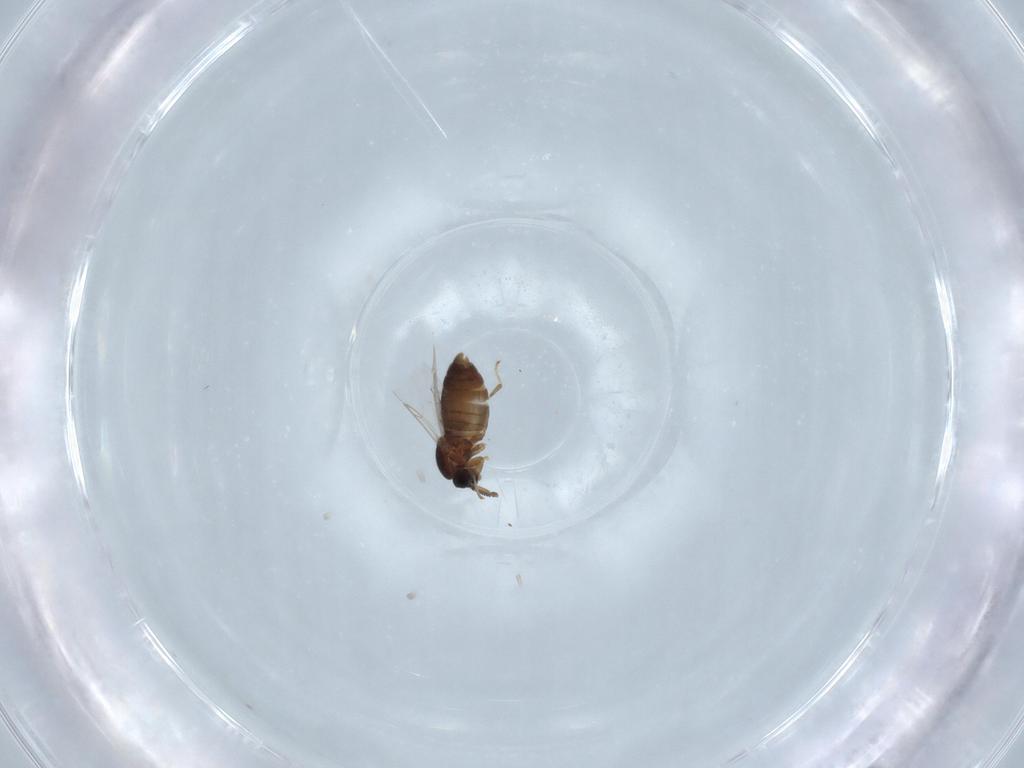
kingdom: Animalia
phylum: Arthropoda
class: Insecta
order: Diptera
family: Scatopsidae
